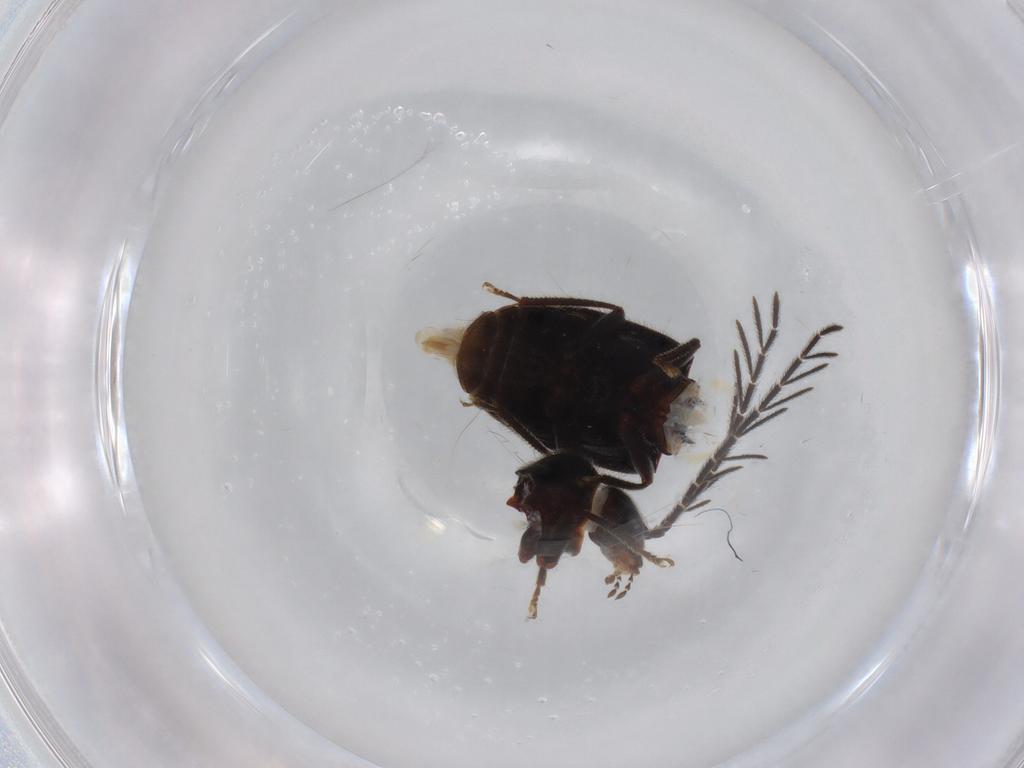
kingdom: Animalia
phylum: Arthropoda
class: Insecta
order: Coleoptera
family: Ptilodactylidae
